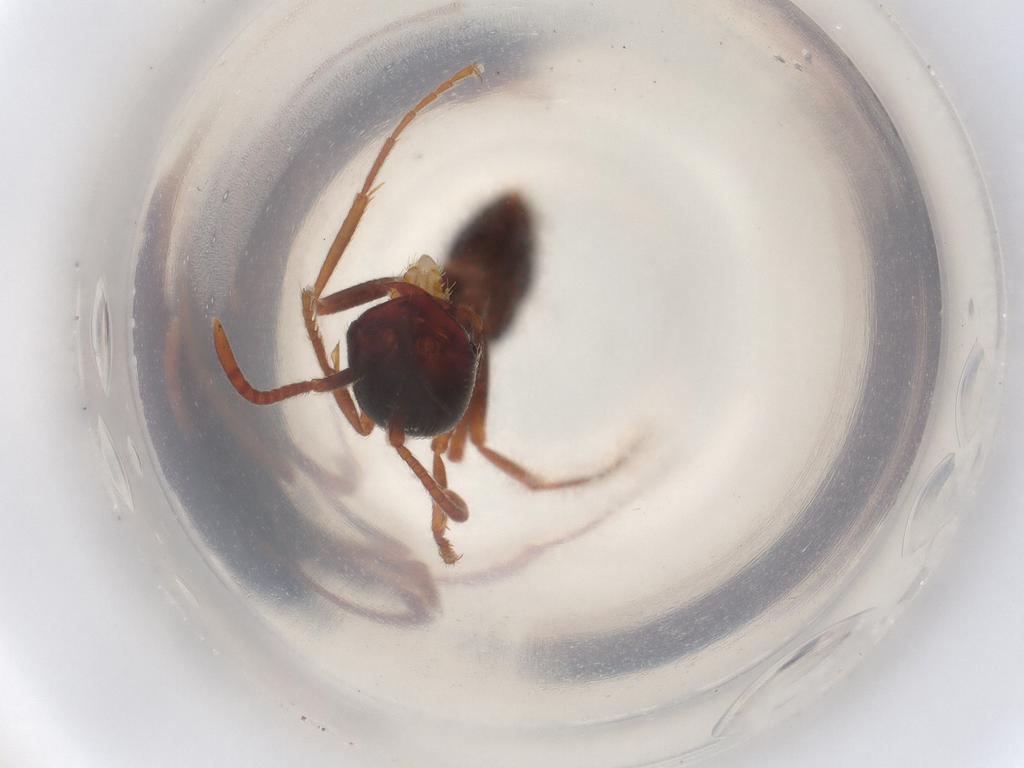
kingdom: Animalia
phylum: Arthropoda
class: Insecta
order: Hymenoptera
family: Formicidae
